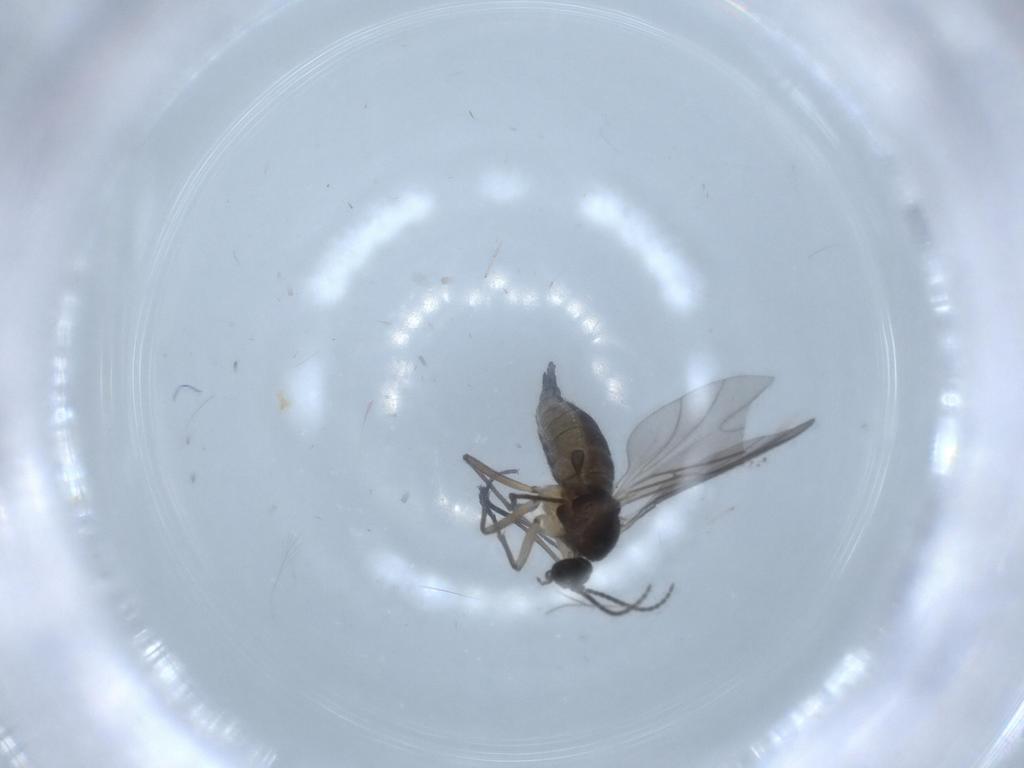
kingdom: Animalia
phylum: Arthropoda
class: Insecta
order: Diptera
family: Sciaridae
